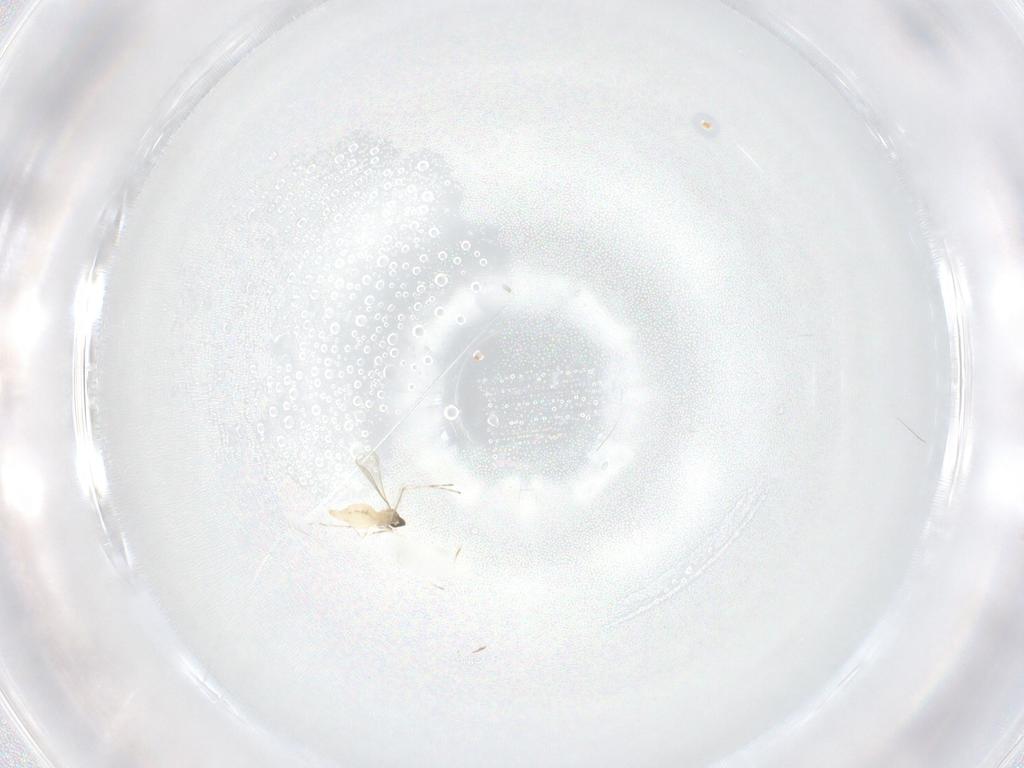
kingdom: Animalia
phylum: Arthropoda
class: Insecta
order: Diptera
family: Cecidomyiidae
